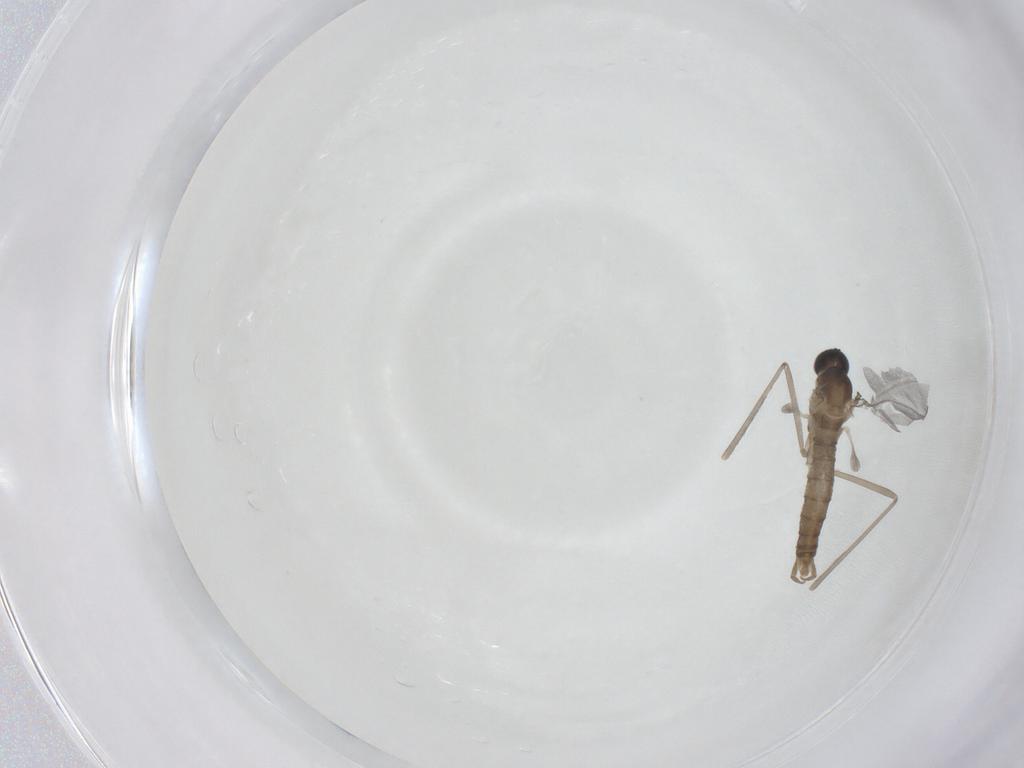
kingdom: Animalia
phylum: Arthropoda
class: Insecta
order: Diptera
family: Cecidomyiidae
